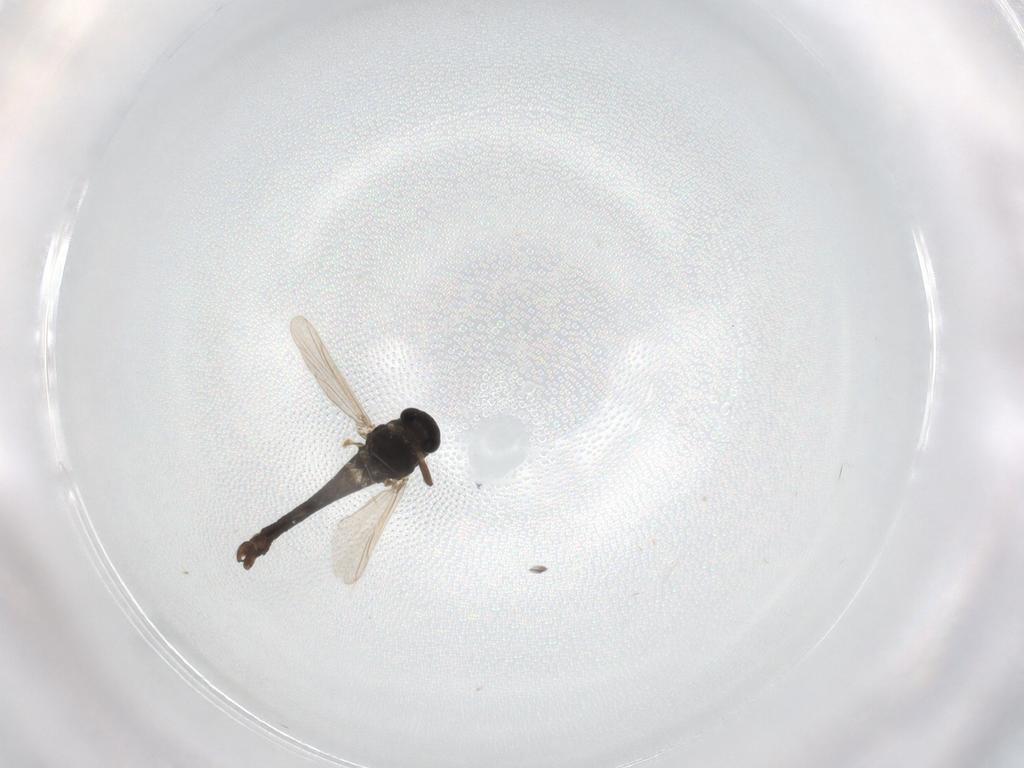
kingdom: Animalia
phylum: Arthropoda
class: Insecta
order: Diptera
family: Chironomidae
